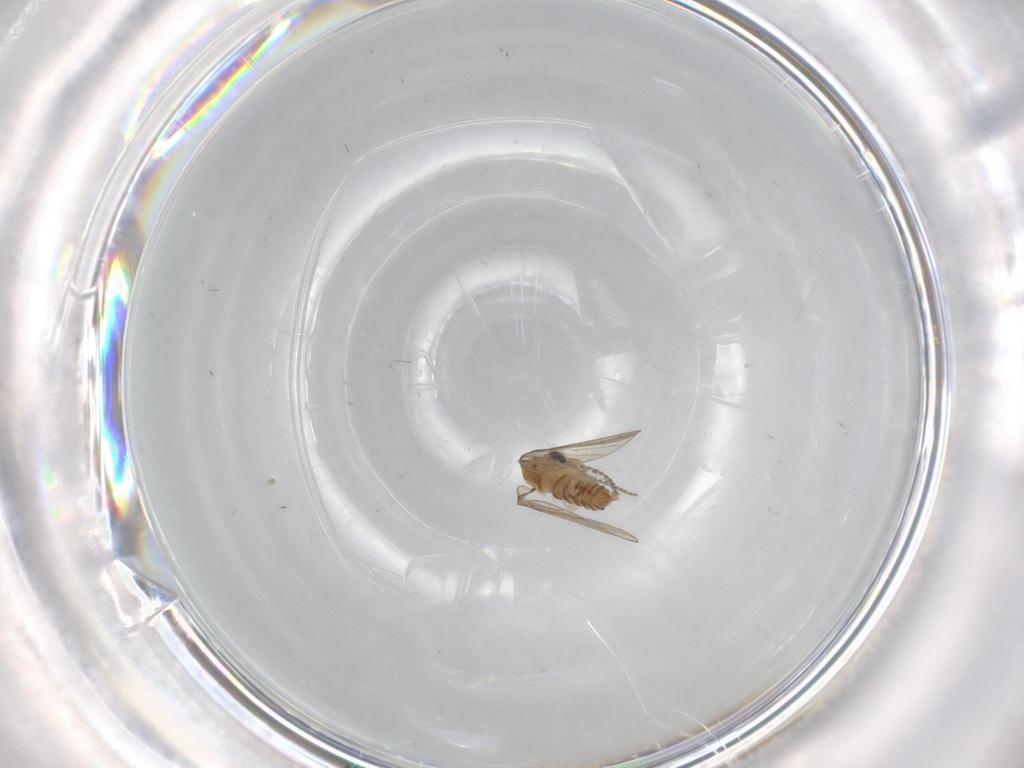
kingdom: Animalia
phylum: Arthropoda
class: Insecta
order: Diptera
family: Psychodidae
